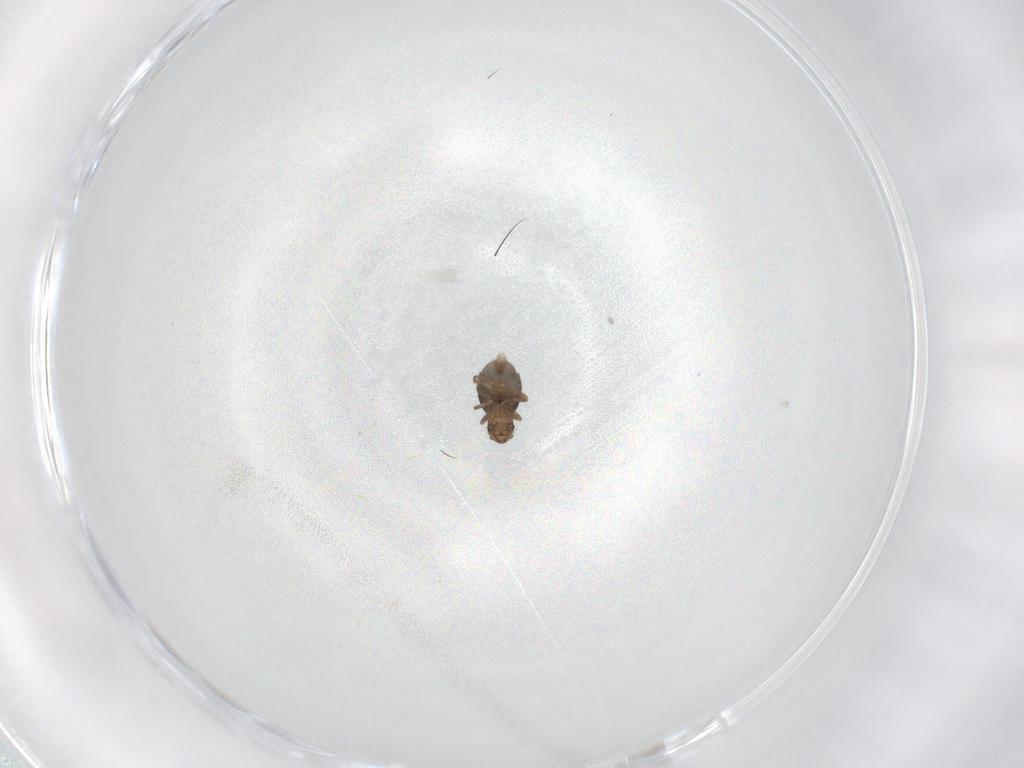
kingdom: Animalia
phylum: Arthropoda
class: Insecta
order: Diptera
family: Phoridae
